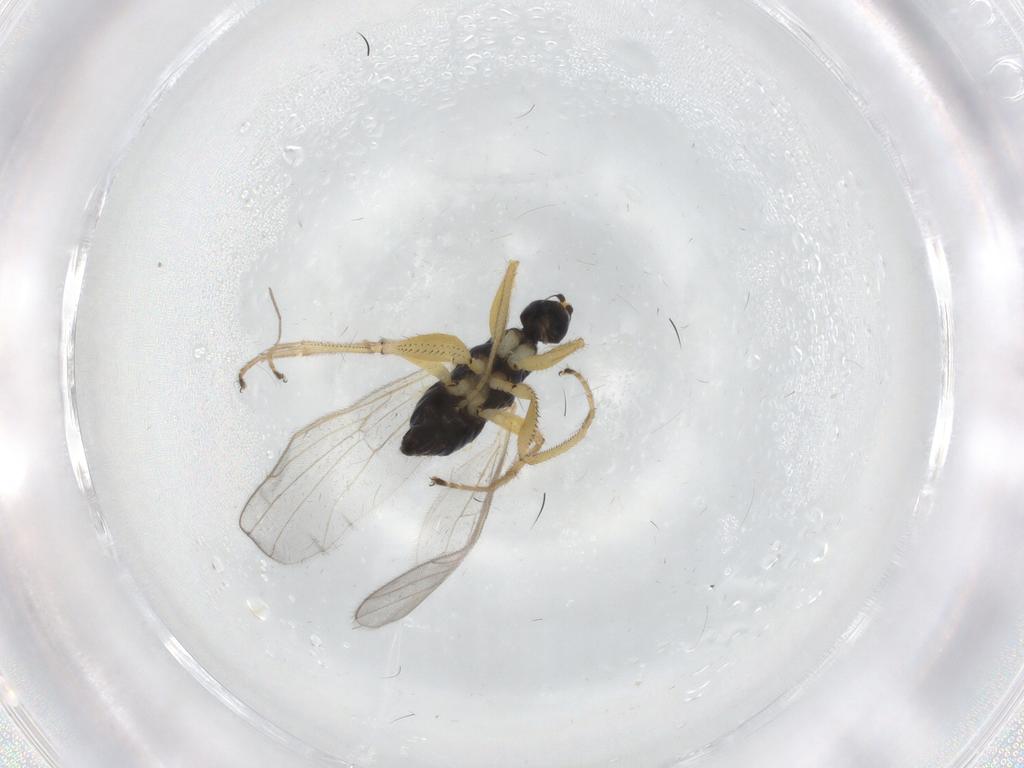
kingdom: Animalia
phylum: Arthropoda
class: Insecta
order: Diptera
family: Hybotidae
